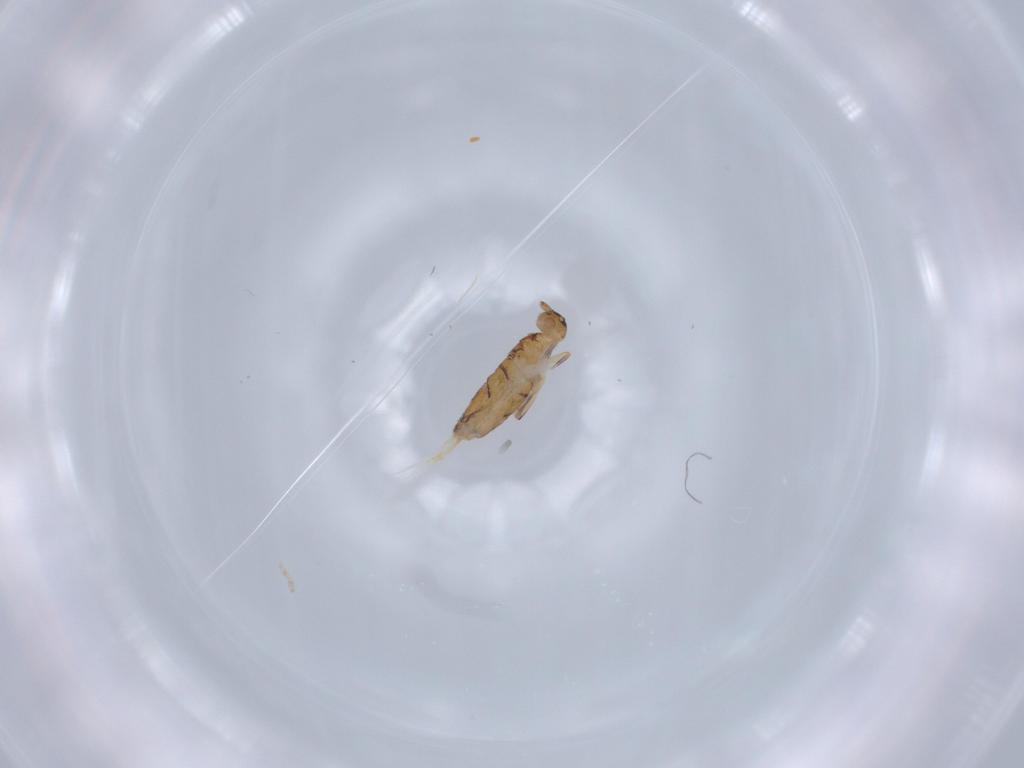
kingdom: Animalia
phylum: Arthropoda
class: Collembola
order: Entomobryomorpha
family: Entomobryidae
